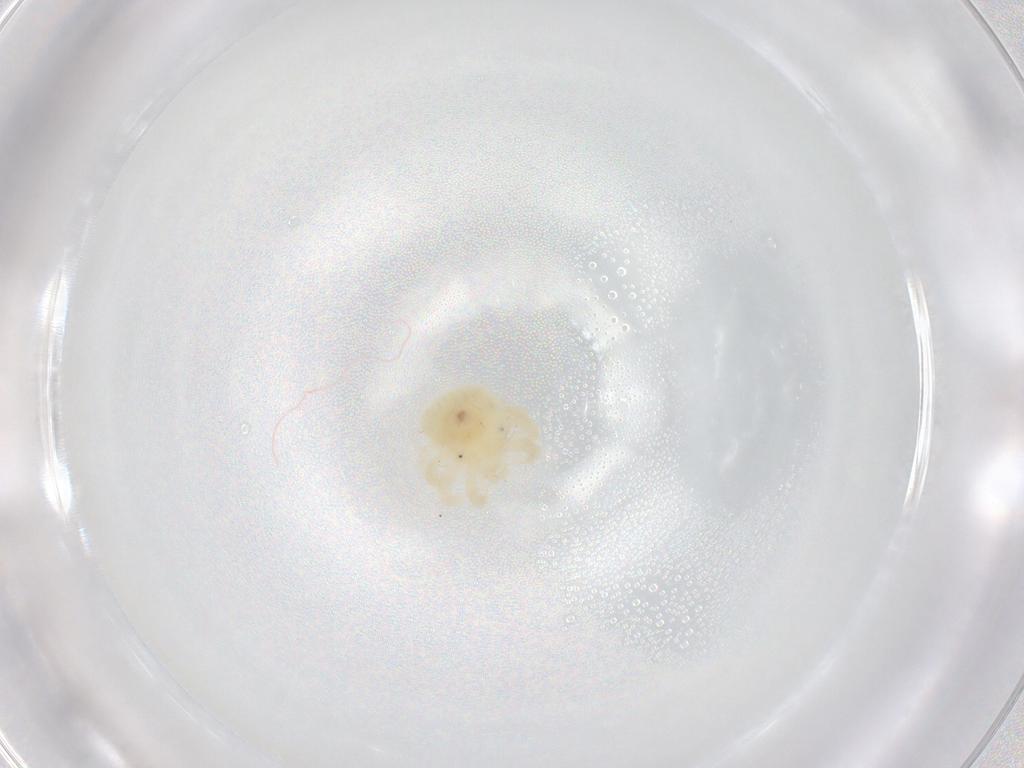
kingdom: Animalia
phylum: Arthropoda
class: Arachnida
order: Trombidiformes
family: Eriophyidae
